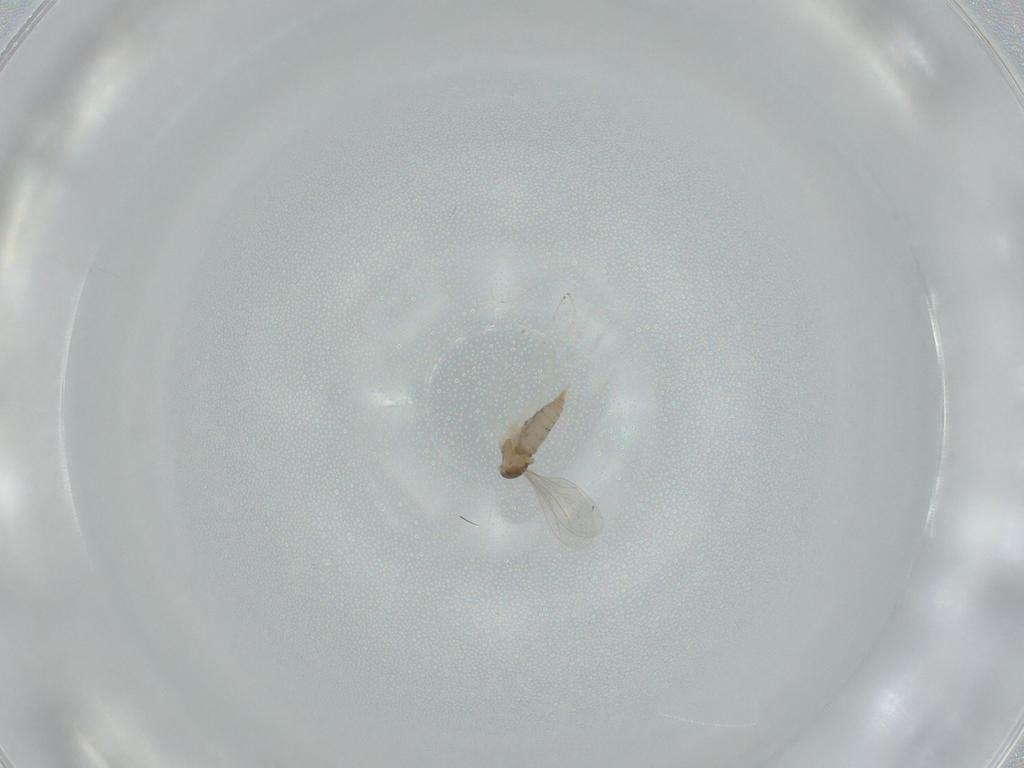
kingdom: Animalia
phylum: Arthropoda
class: Insecta
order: Diptera
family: Cecidomyiidae
